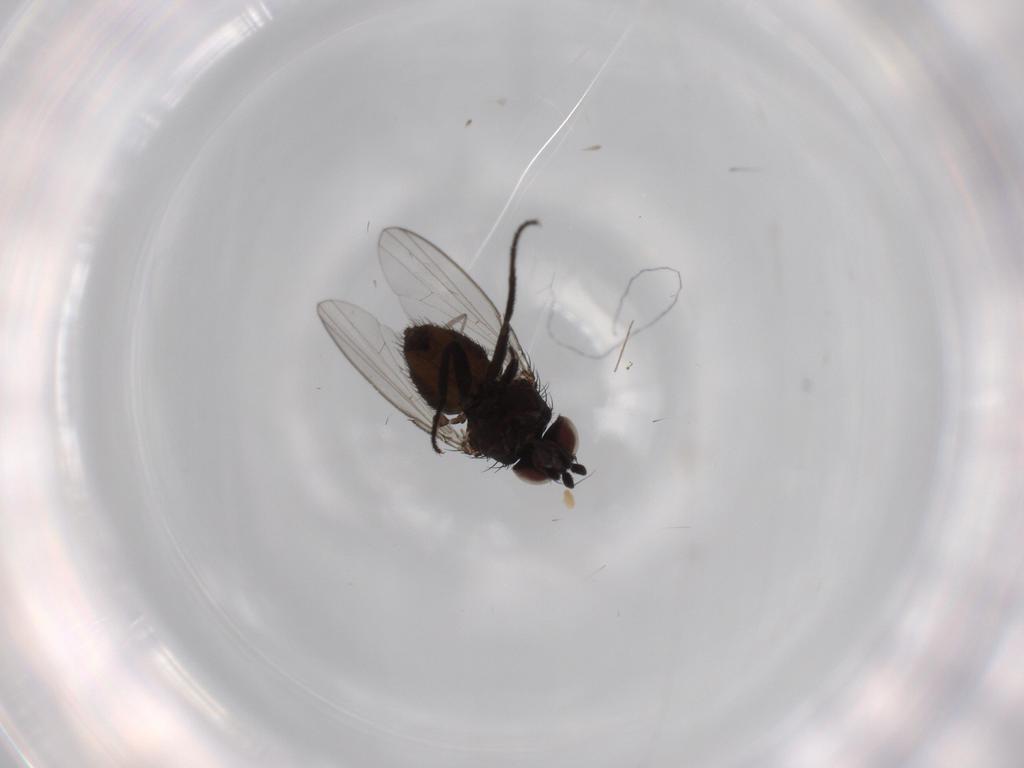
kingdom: Animalia
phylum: Arthropoda
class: Insecta
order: Diptera
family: Milichiidae
